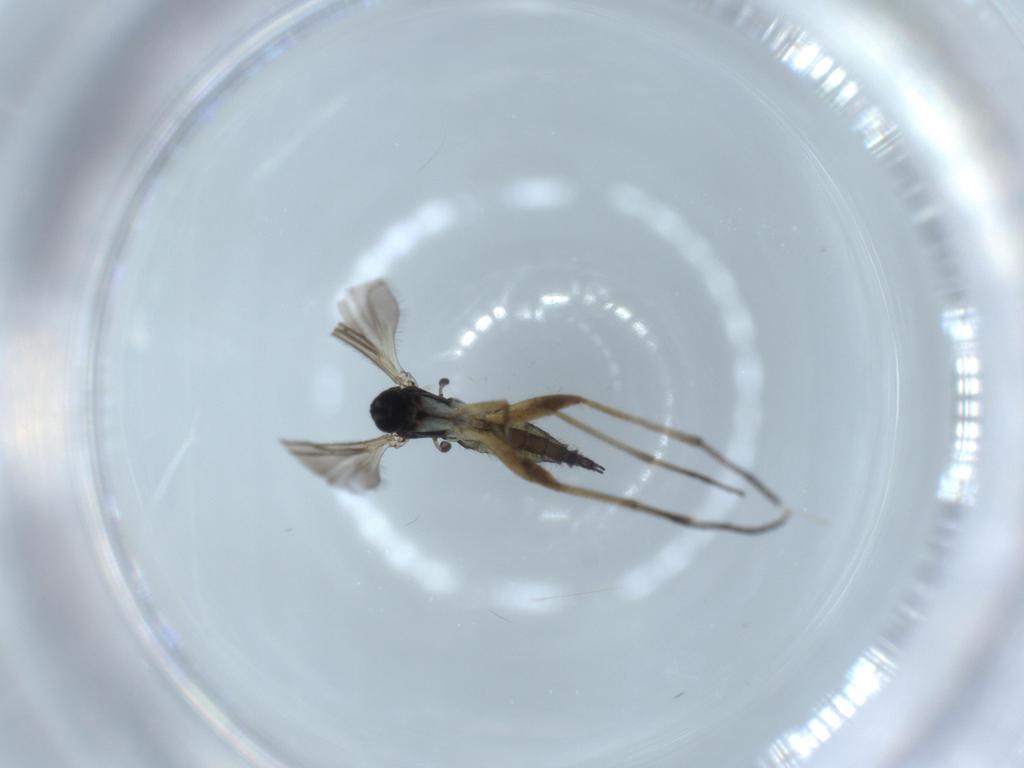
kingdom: Animalia
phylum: Arthropoda
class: Insecta
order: Diptera
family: Sciaridae
